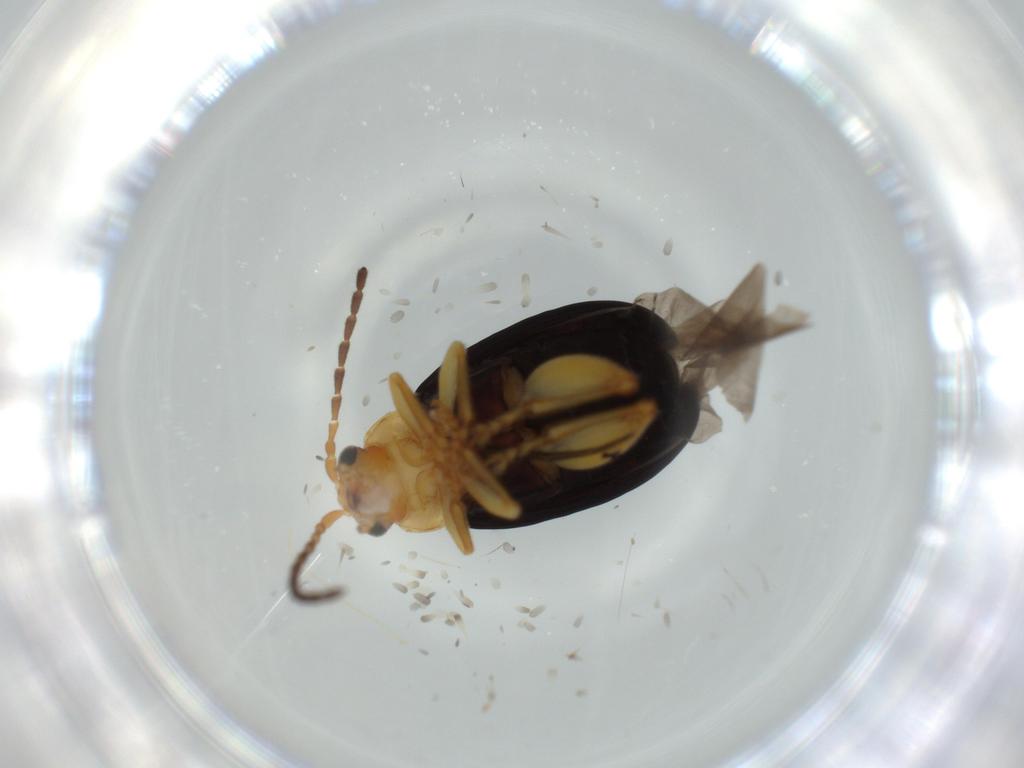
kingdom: Animalia
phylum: Arthropoda
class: Insecta
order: Coleoptera
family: Chrysomelidae
